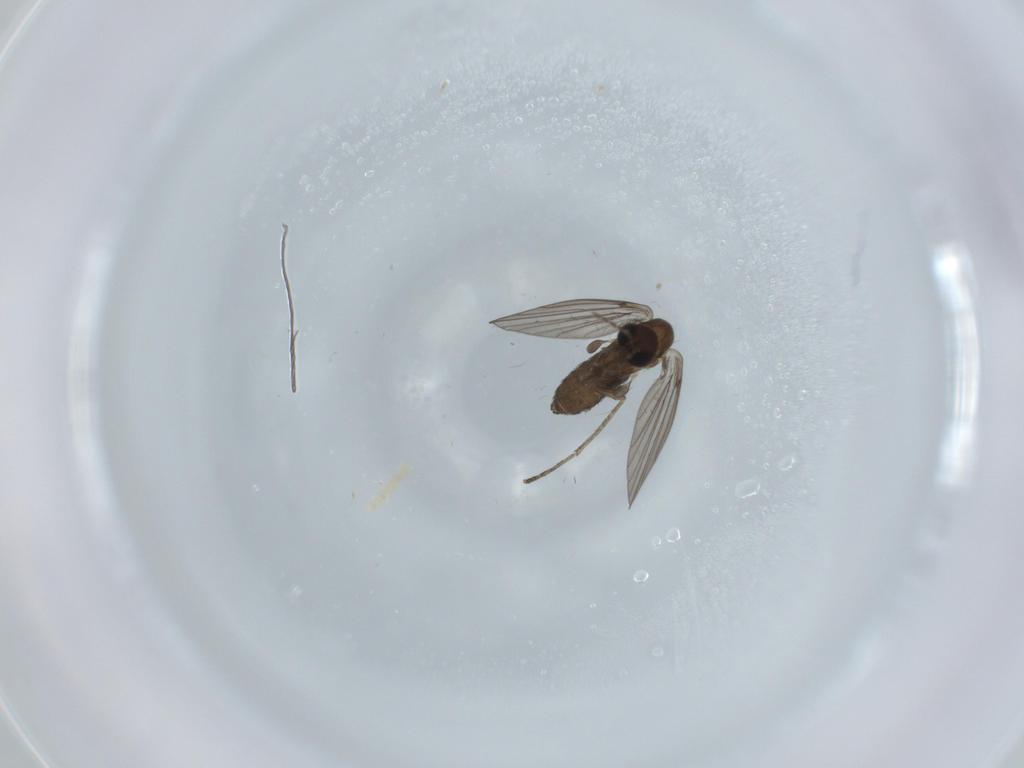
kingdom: Animalia
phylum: Arthropoda
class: Insecta
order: Diptera
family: Psychodidae
